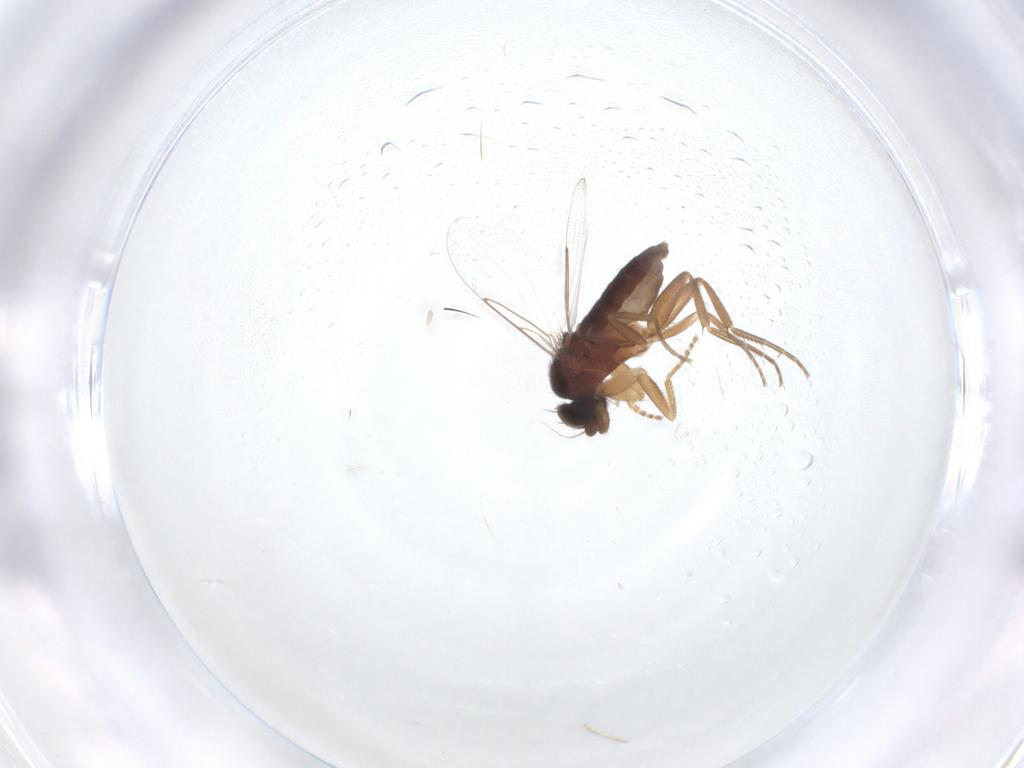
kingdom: Animalia
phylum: Arthropoda
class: Insecta
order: Diptera
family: Phoridae
